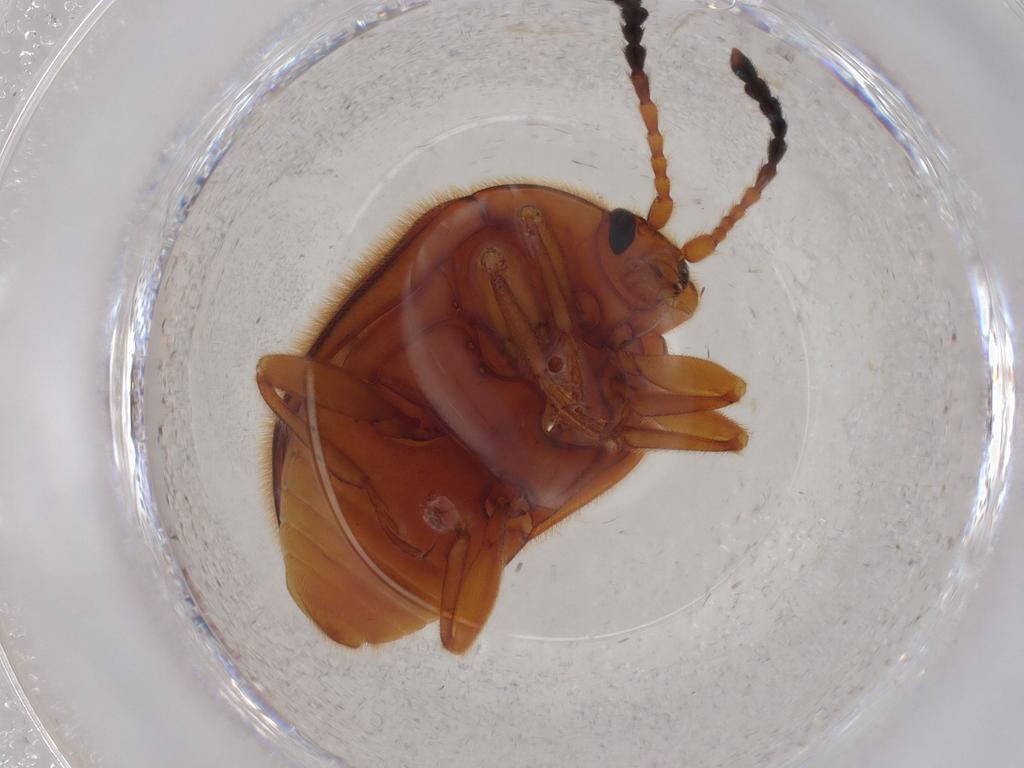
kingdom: Animalia
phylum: Arthropoda
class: Insecta
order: Coleoptera
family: Endomychidae
